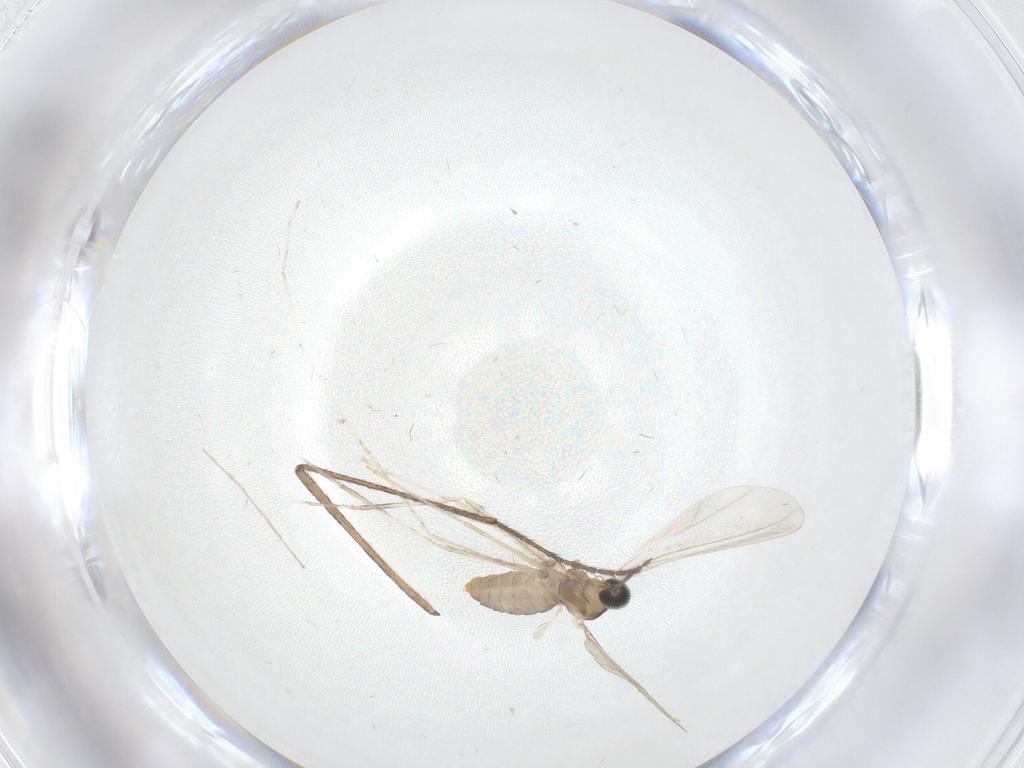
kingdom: Animalia
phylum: Arthropoda
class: Insecta
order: Diptera
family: Cecidomyiidae
